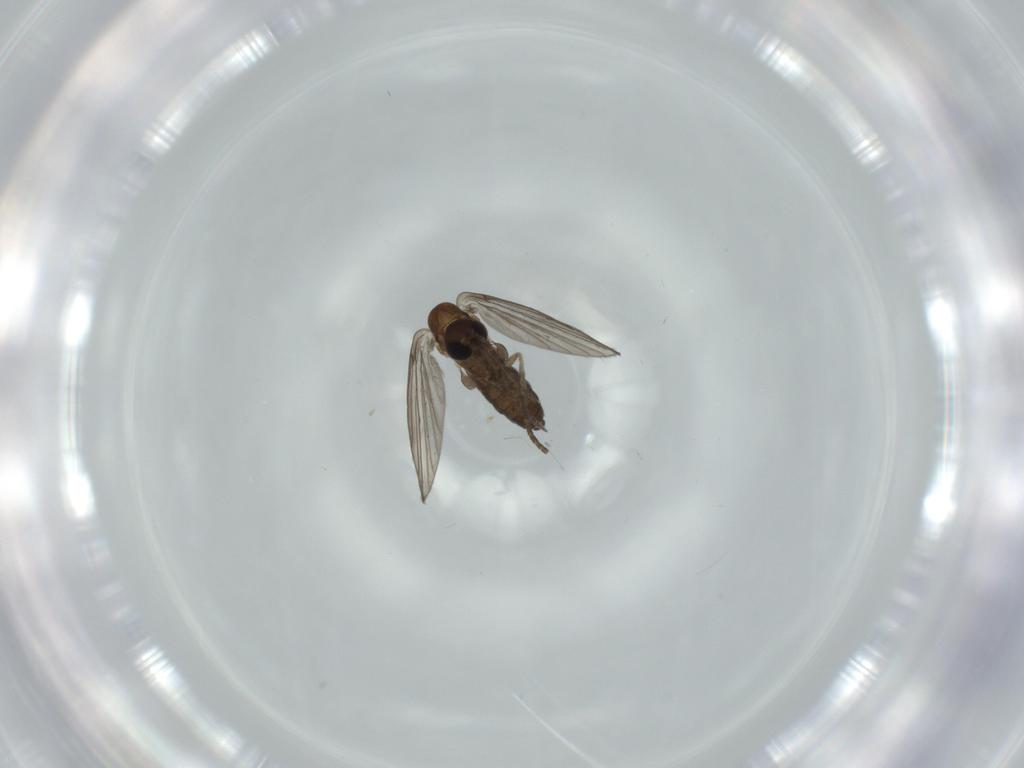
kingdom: Animalia
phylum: Arthropoda
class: Insecta
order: Diptera
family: Psychodidae
